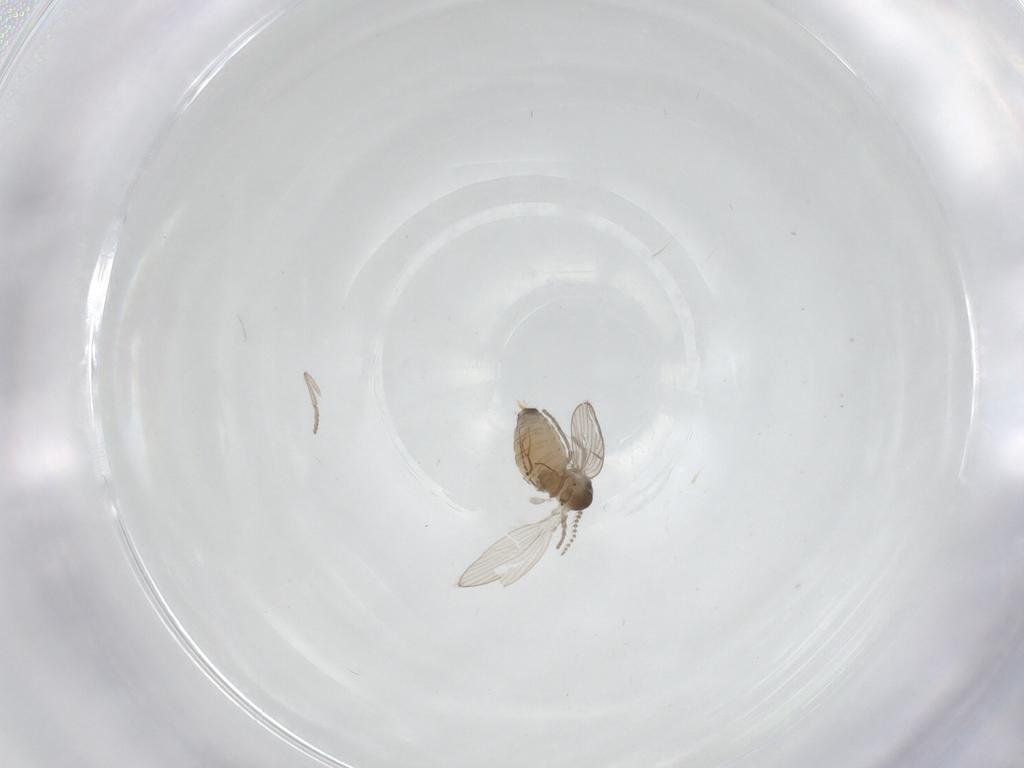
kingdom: Animalia
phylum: Arthropoda
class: Insecta
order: Diptera
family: Psychodidae
